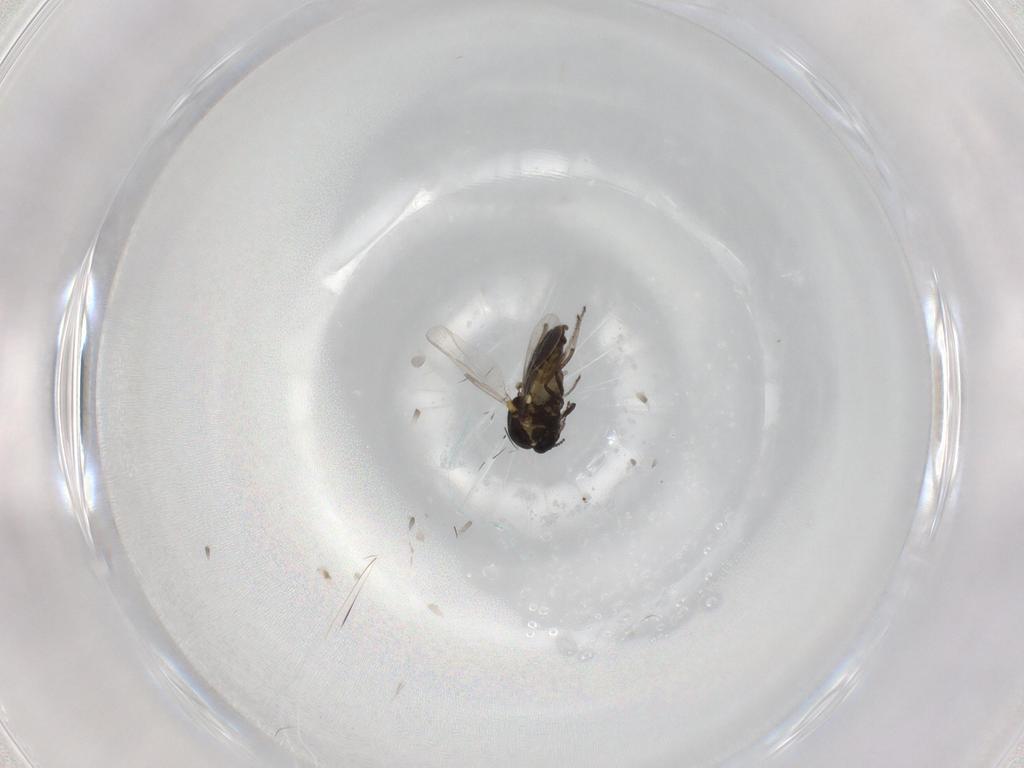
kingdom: Animalia
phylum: Arthropoda
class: Insecta
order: Diptera
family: Ceratopogonidae
